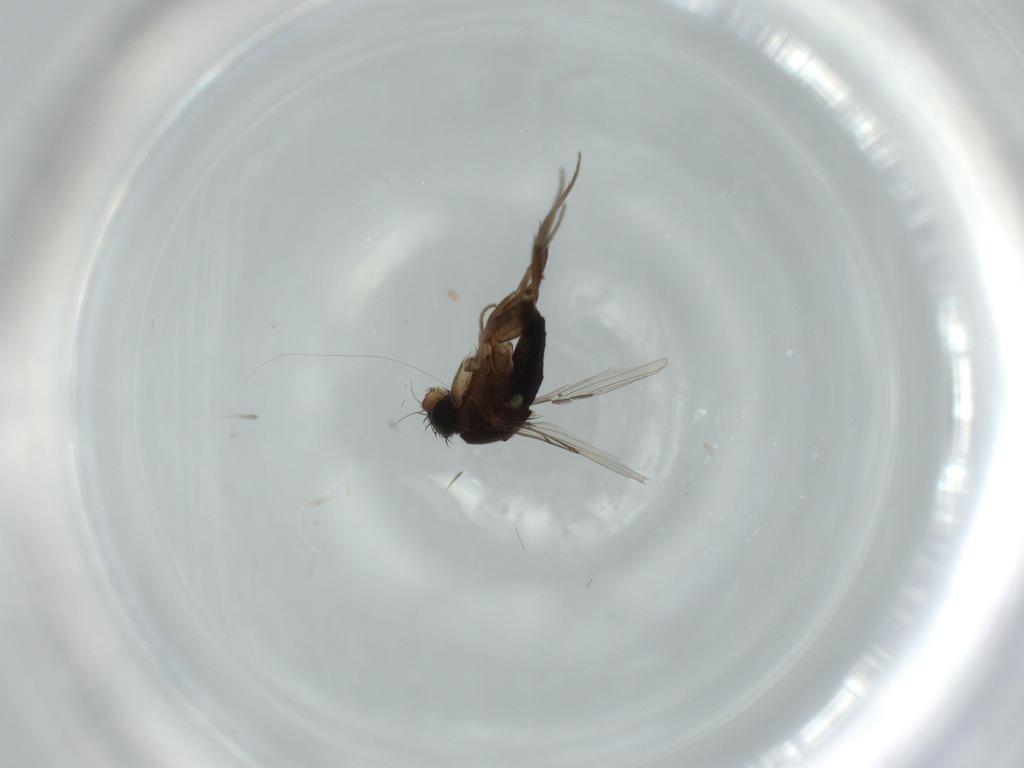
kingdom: Animalia
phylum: Arthropoda
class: Insecta
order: Diptera
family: Phoridae
